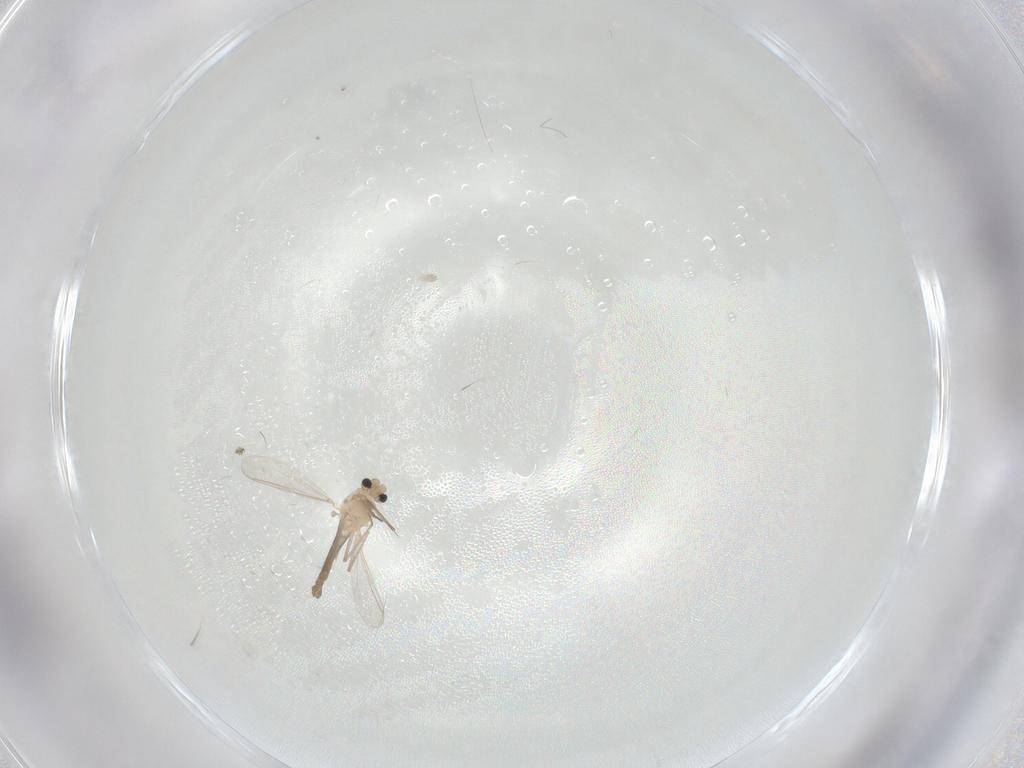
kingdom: Animalia
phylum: Arthropoda
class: Insecta
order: Diptera
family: Chironomidae
